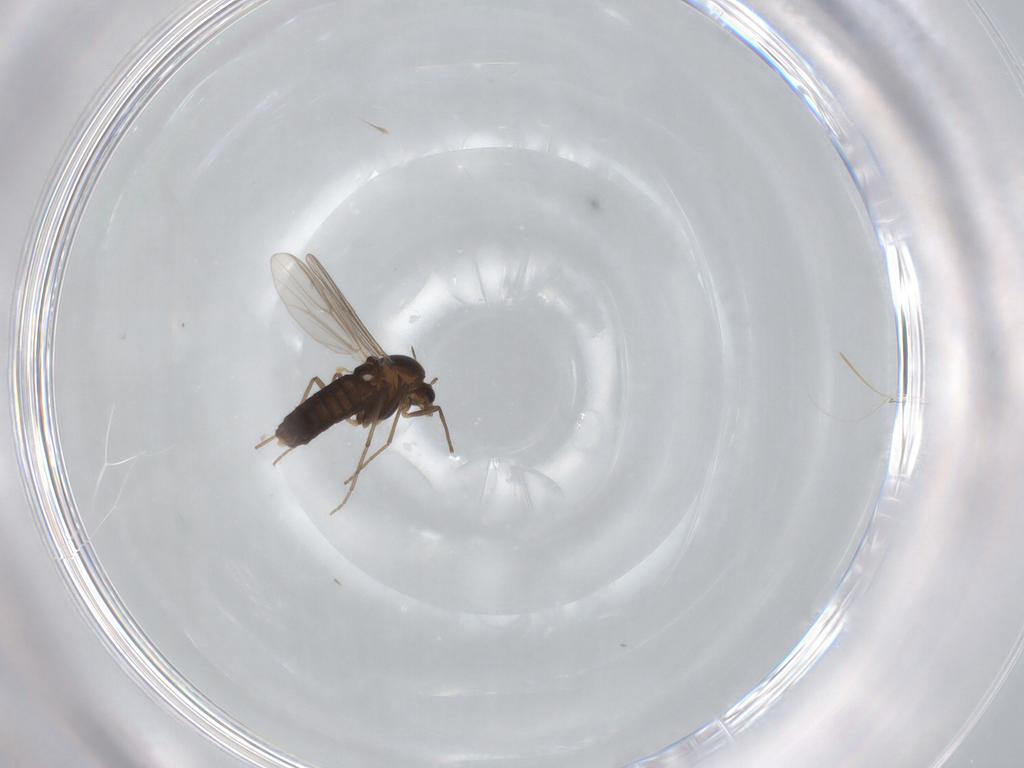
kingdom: Animalia
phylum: Arthropoda
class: Insecta
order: Diptera
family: Chironomidae
